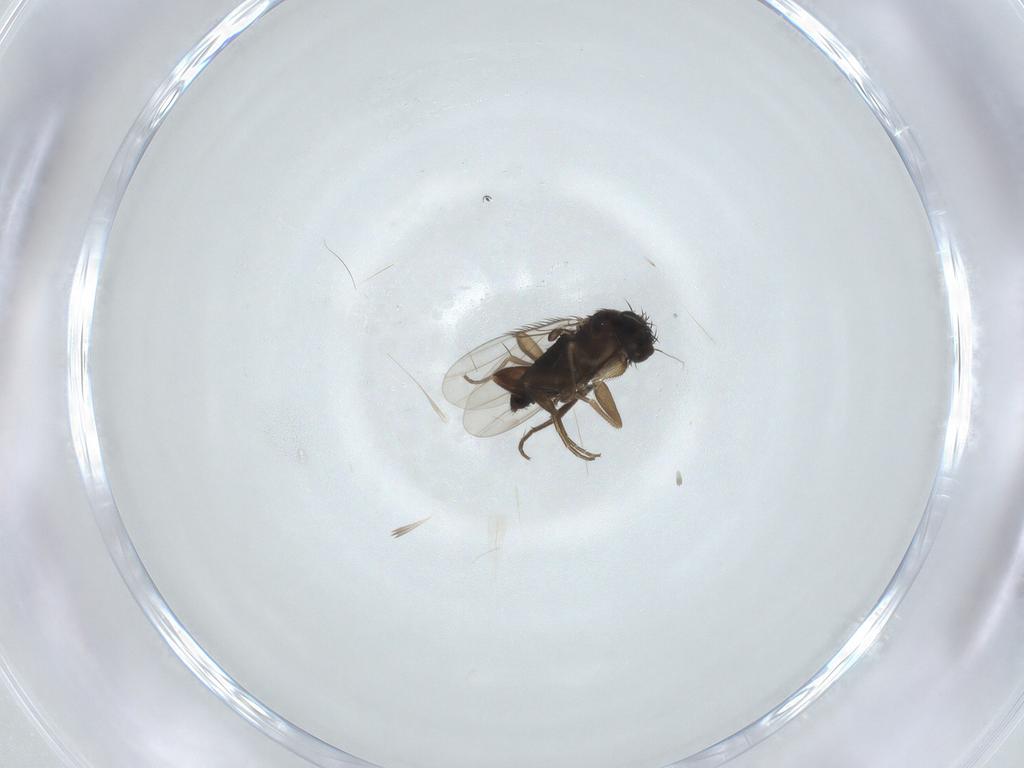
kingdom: Animalia
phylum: Arthropoda
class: Insecta
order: Diptera
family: Phoridae
